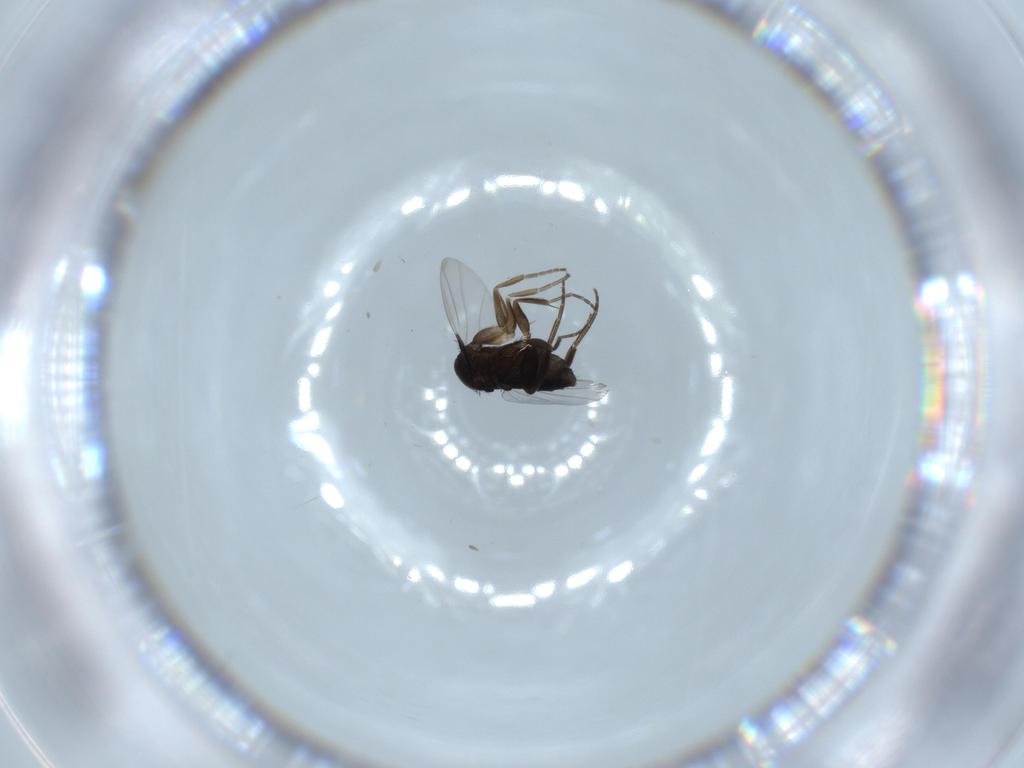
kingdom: Animalia
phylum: Arthropoda
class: Insecta
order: Diptera
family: Phoridae
